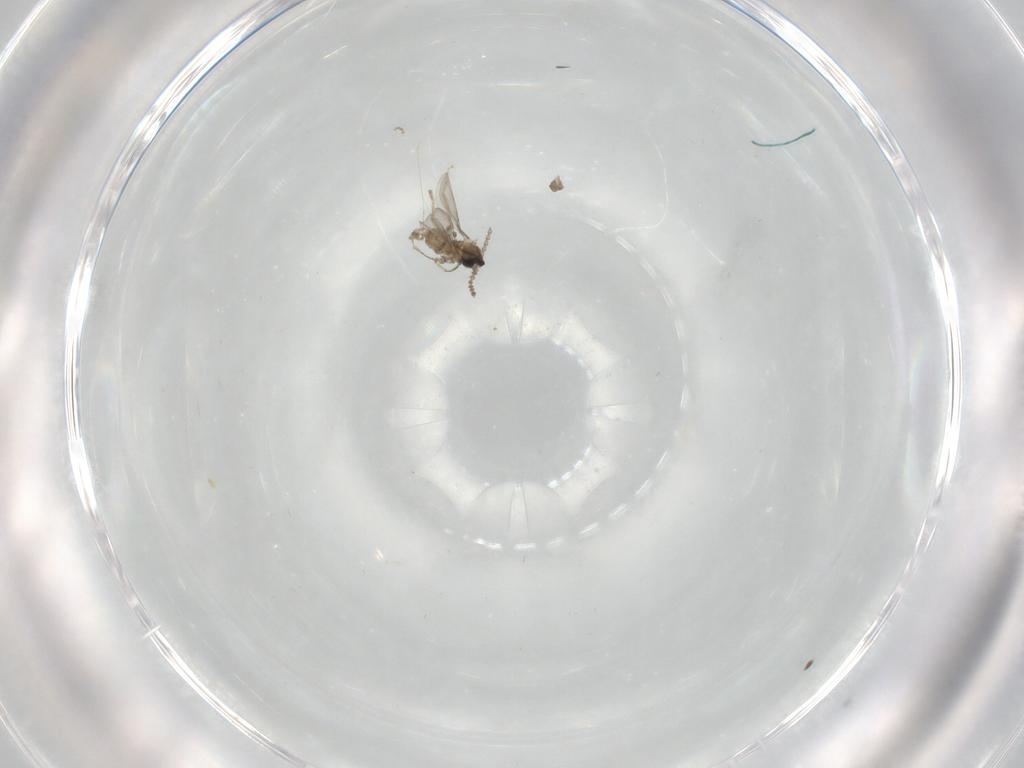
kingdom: Animalia
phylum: Arthropoda
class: Insecta
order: Diptera
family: Cecidomyiidae
